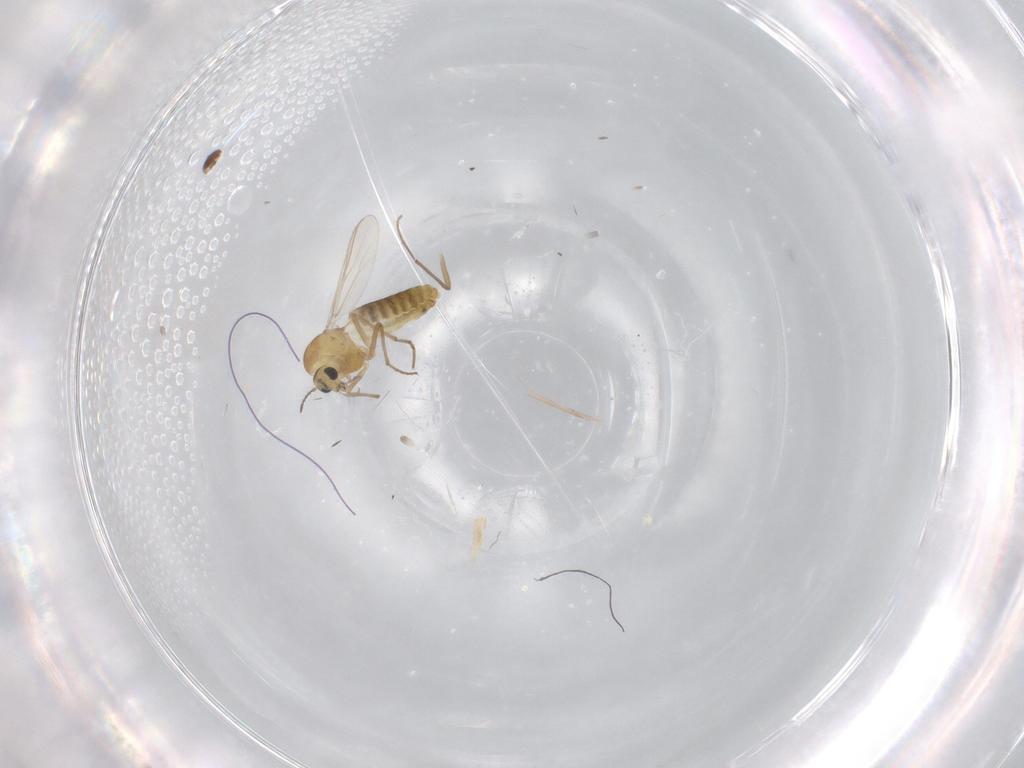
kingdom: Animalia
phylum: Arthropoda
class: Insecta
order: Diptera
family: Chironomidae
